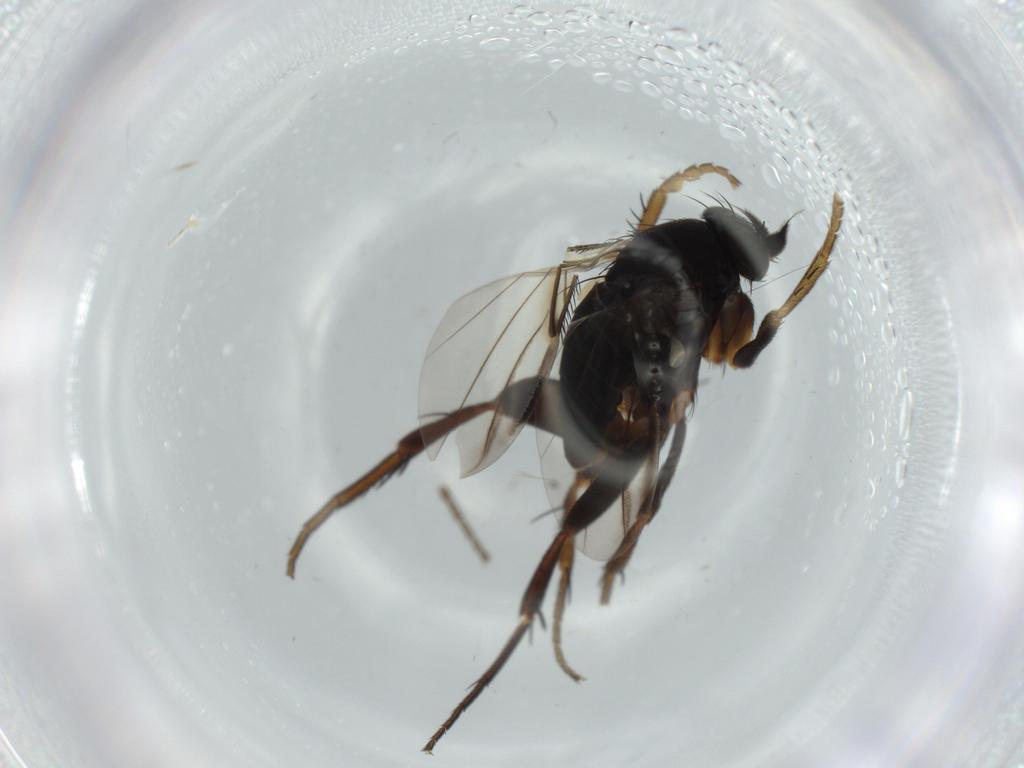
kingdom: Animalia
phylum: Arthropoda
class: Insecta
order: Diptera
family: Phoridae
